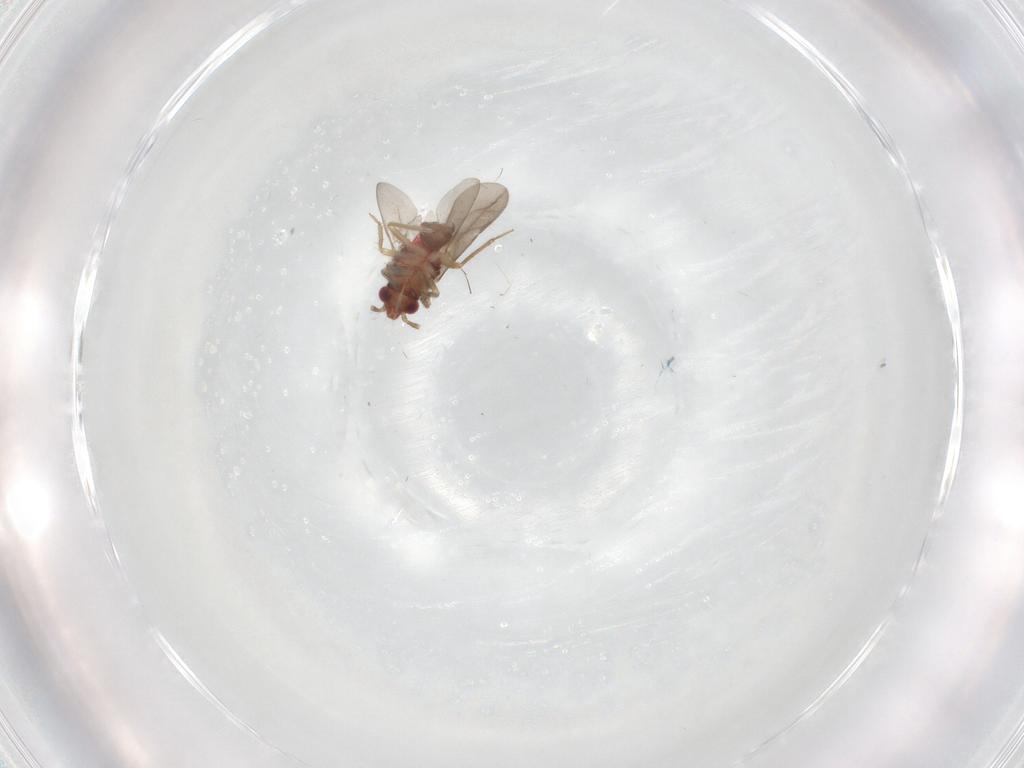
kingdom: Animalia
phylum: Arthropoda
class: Insecta
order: Hemiptera
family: Ceratocombidae
